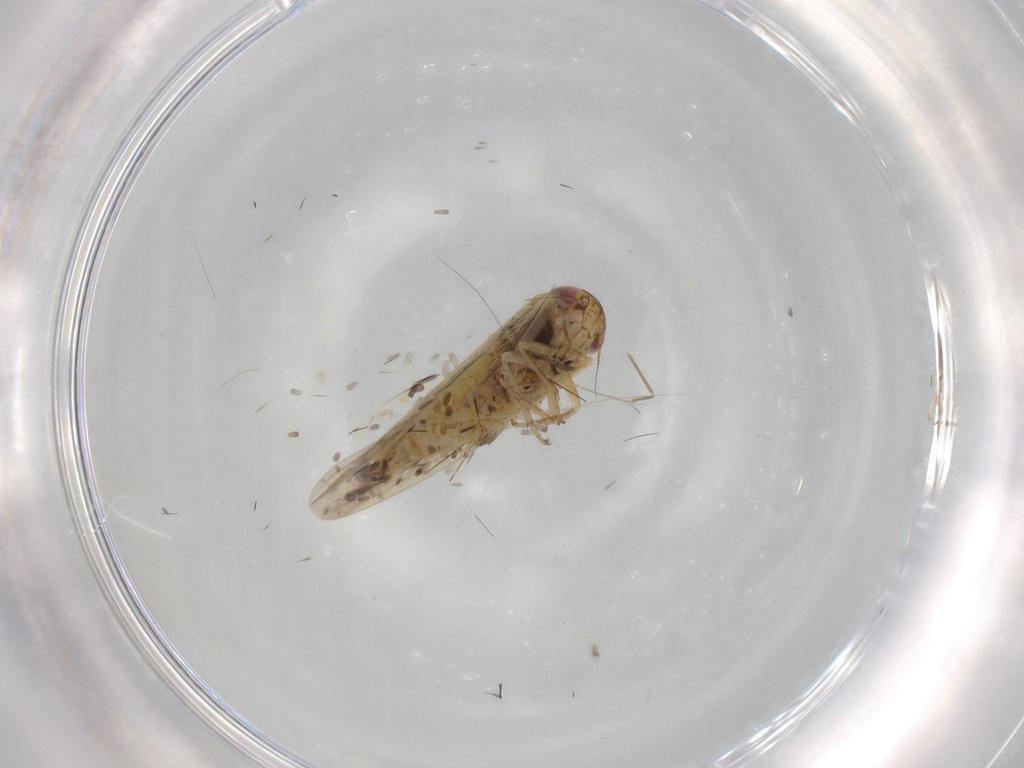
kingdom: Animalia
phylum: Arthropoda
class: Insecta
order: Hemiptera
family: Cicadellidae
